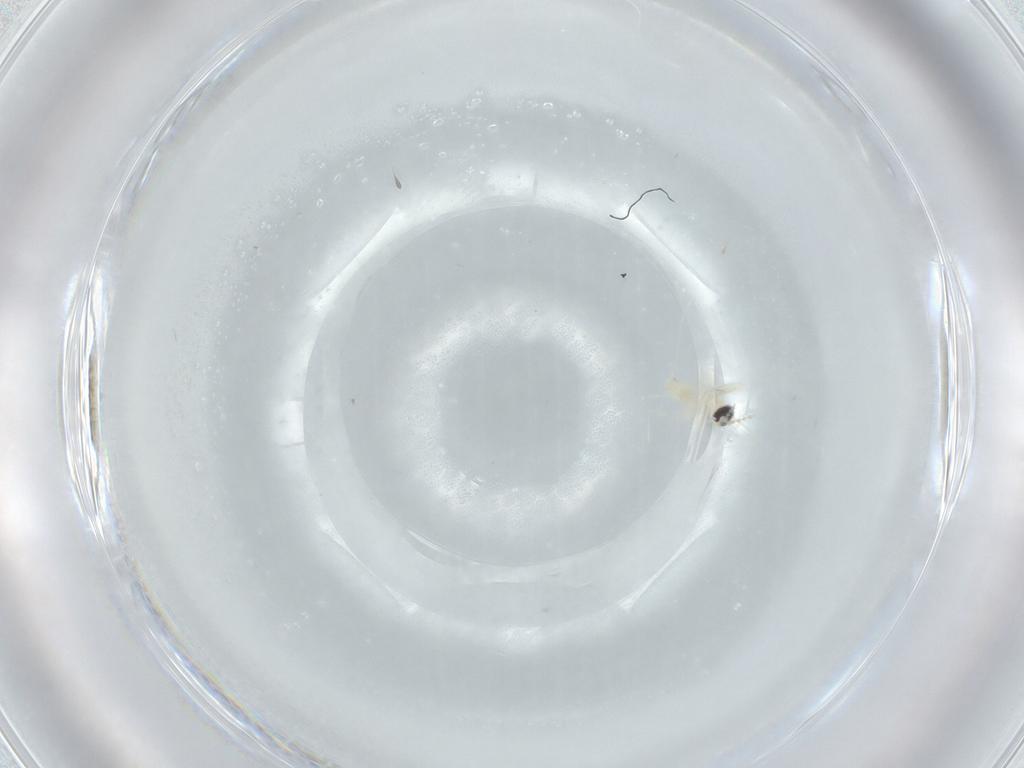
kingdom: Animalia
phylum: Arthropoda
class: Insecta
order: Diptera
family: Cecidomyiidae
